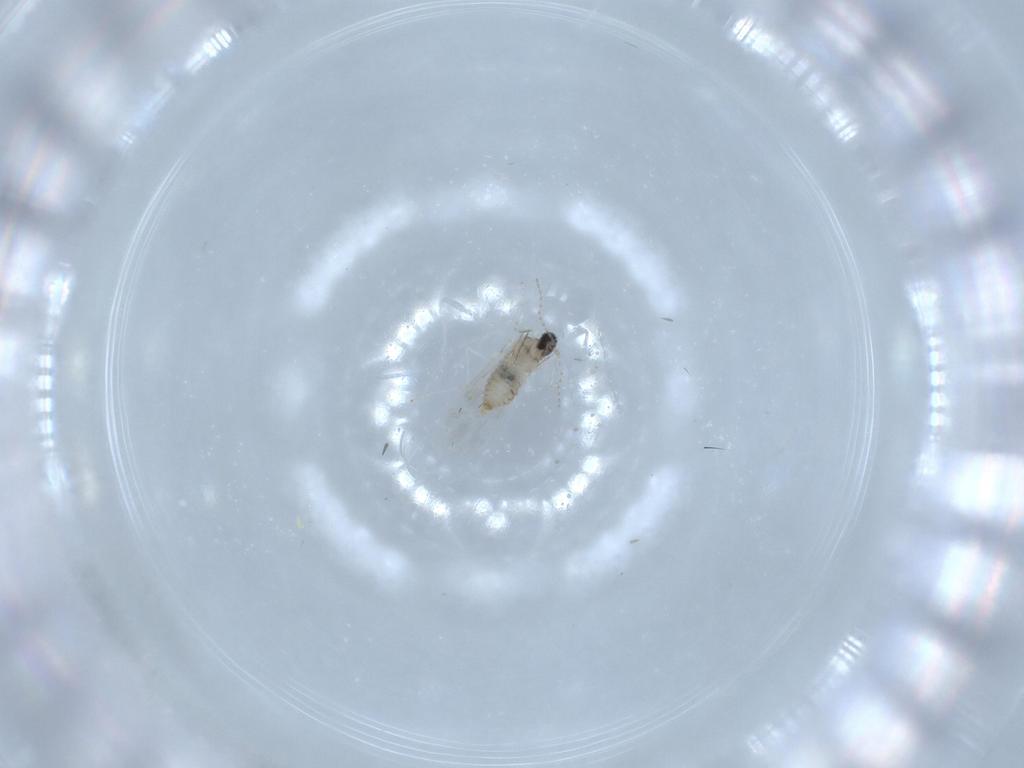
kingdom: Animalia
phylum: Arthropoda
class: Insecta
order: Diptera
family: Cecidomyiidae
